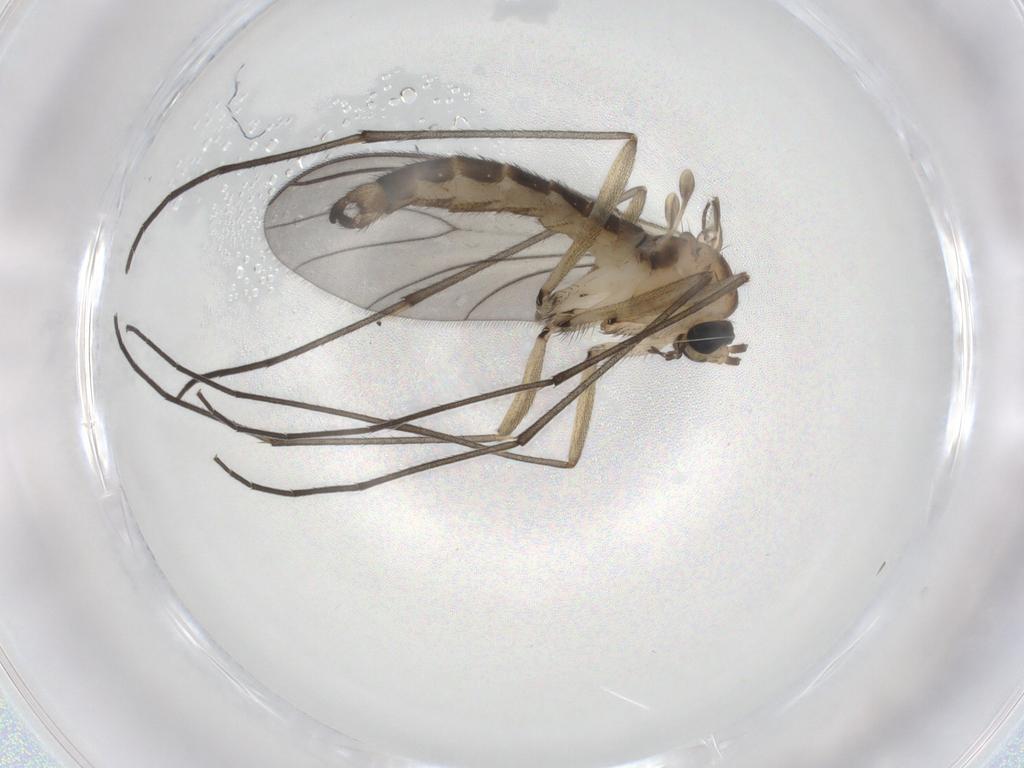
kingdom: Animalia
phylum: Arthropoda
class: Insecta
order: Diptera
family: Sciaridae
